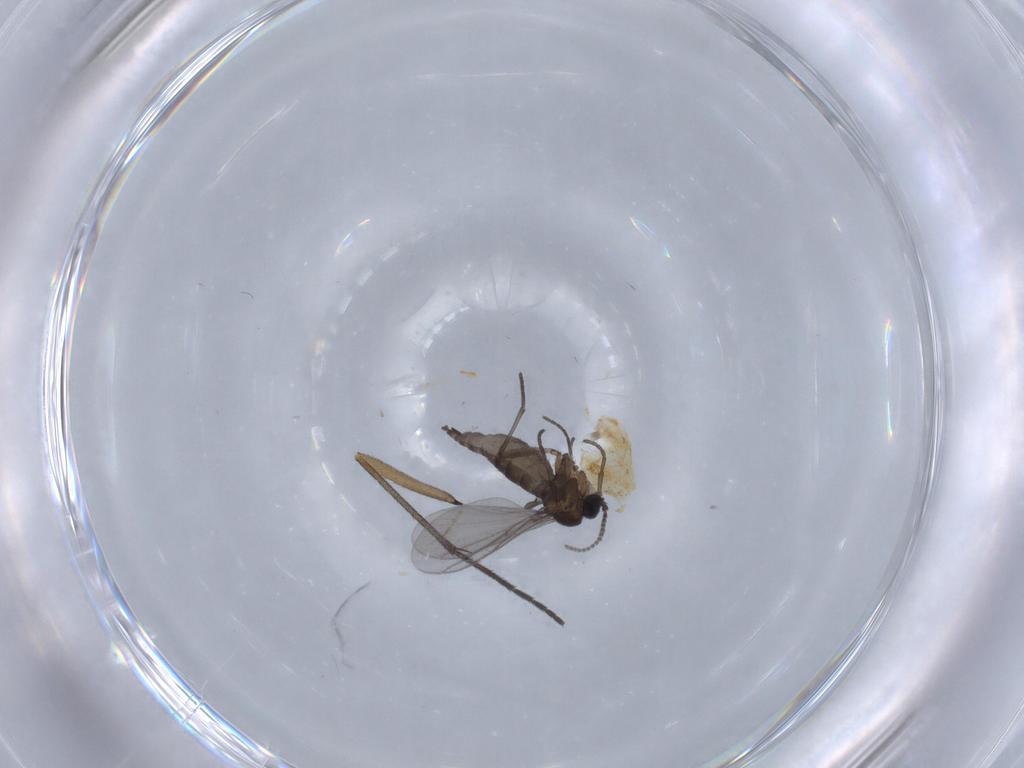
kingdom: Animalia
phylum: Arthropoda
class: Insecta
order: Diptera
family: Chironomidae
